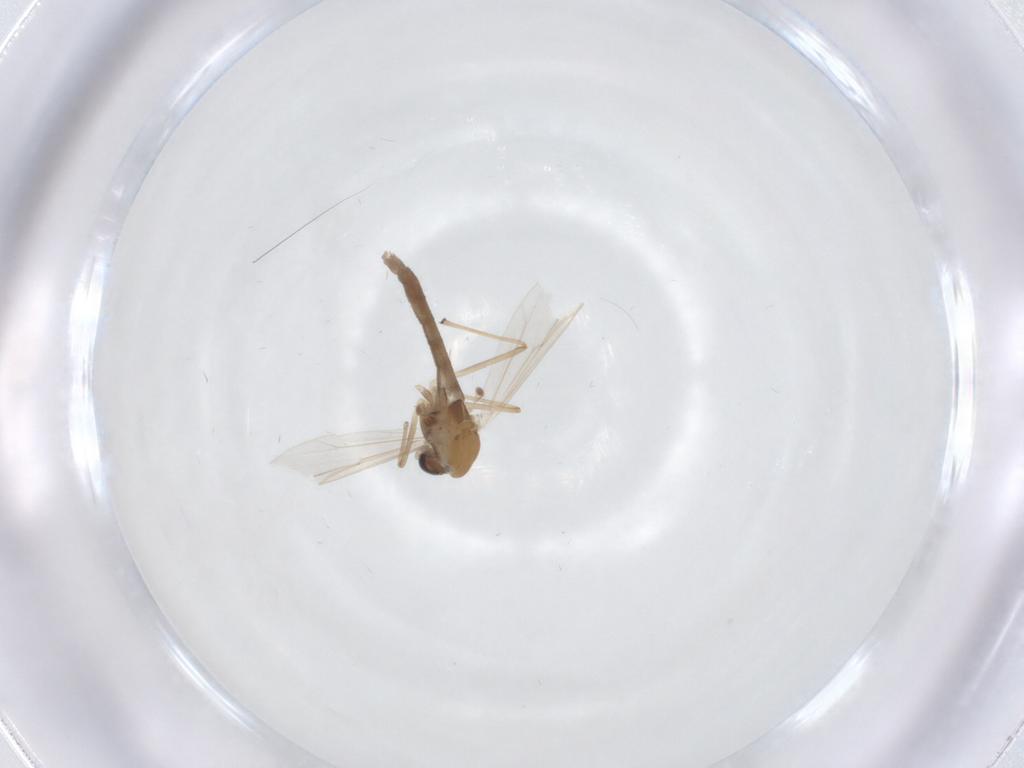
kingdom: Animalia
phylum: Arthropoda
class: Insecta
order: Diptera
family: Chironomidae
